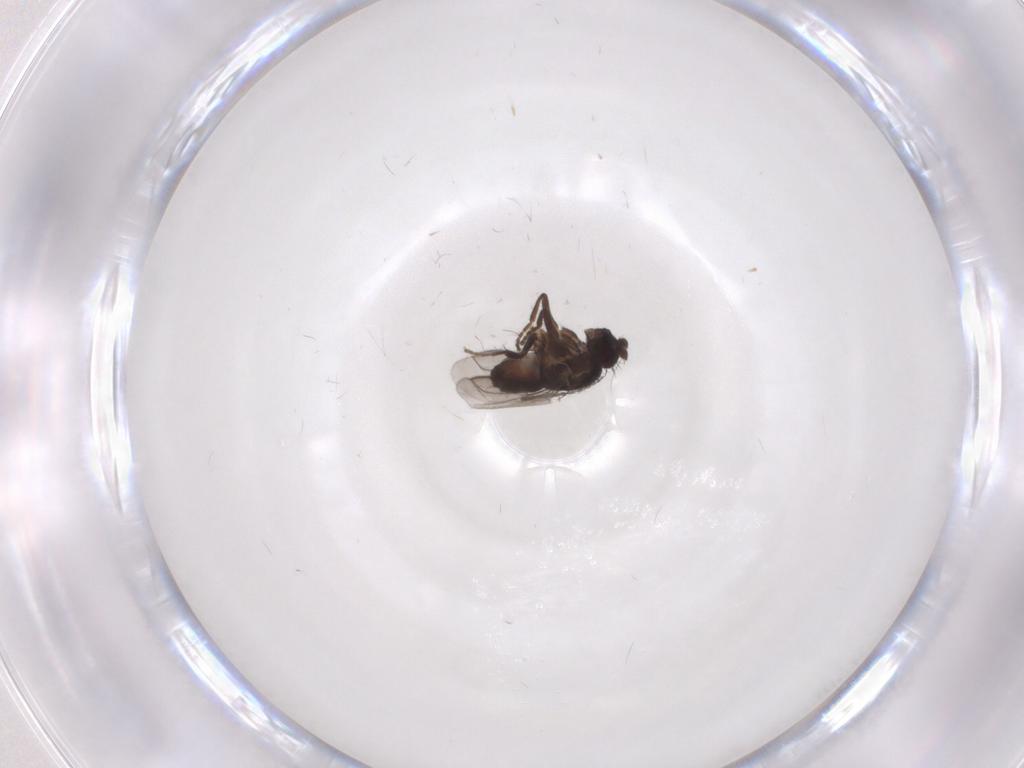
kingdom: Animalia
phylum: Arthropoda
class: Insecta
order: Diptera
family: Sphaeroceridae
